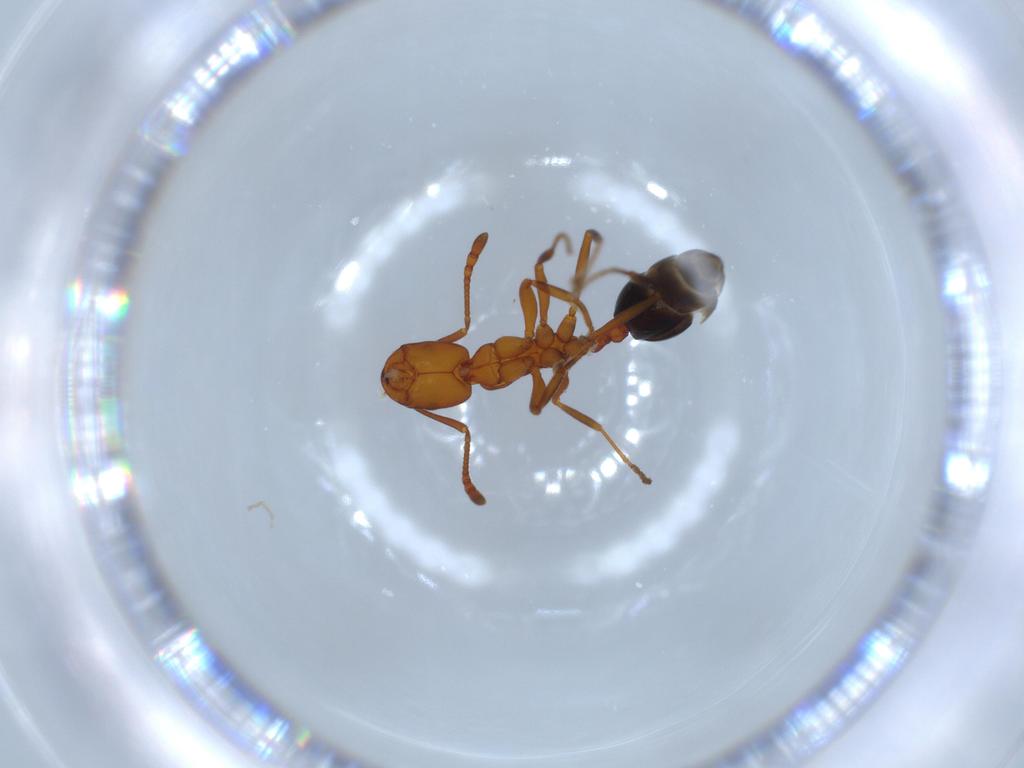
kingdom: Animalia
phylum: Arthropoda
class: Insecta
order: Hymenoptera
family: Formicidae
